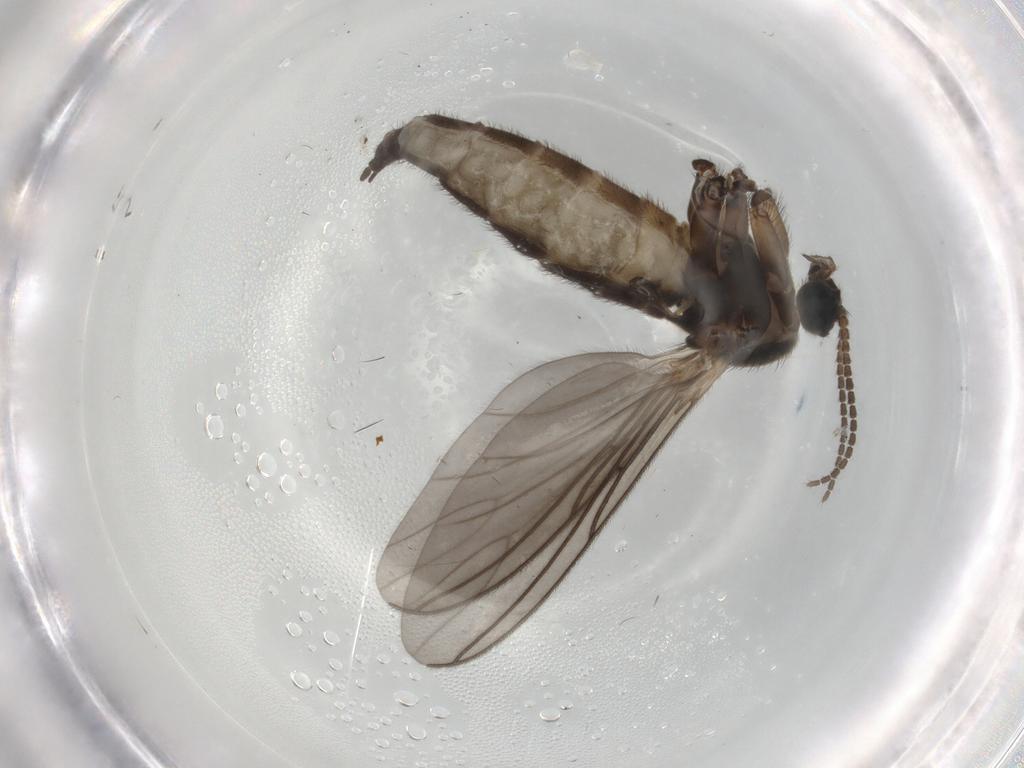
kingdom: Animalia
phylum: Arthropoda
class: Insecta
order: Diptera
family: Sciaridae
